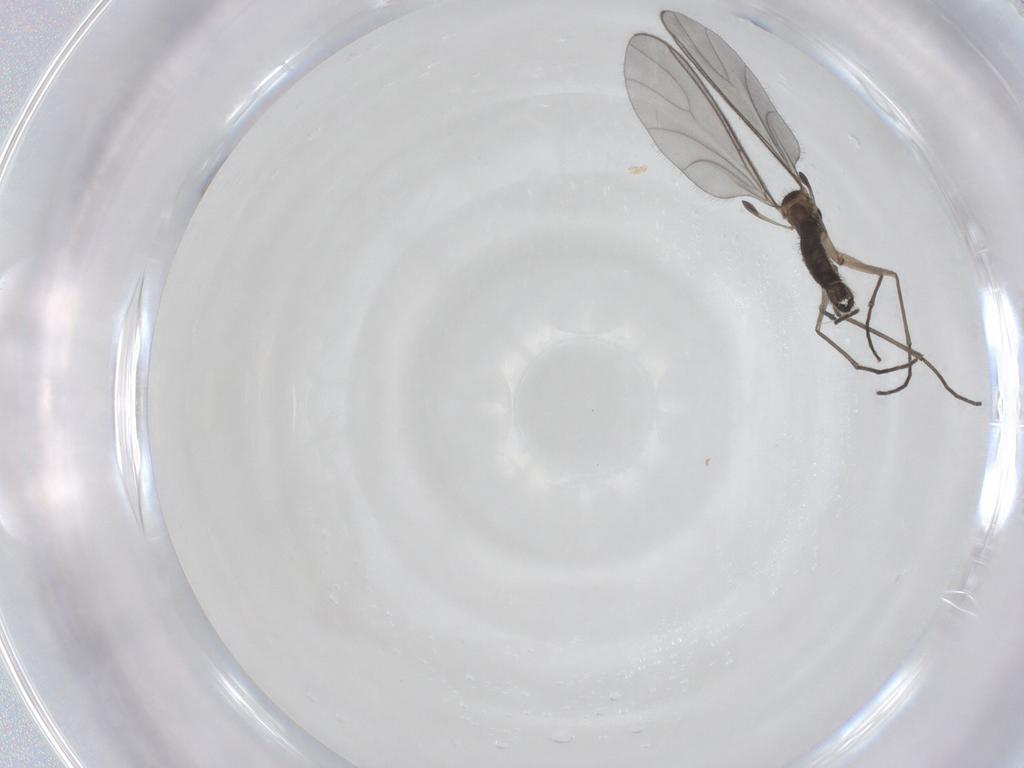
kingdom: Animalia
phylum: Arthropoda
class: Insecta
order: Diptera
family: Sciaridae
